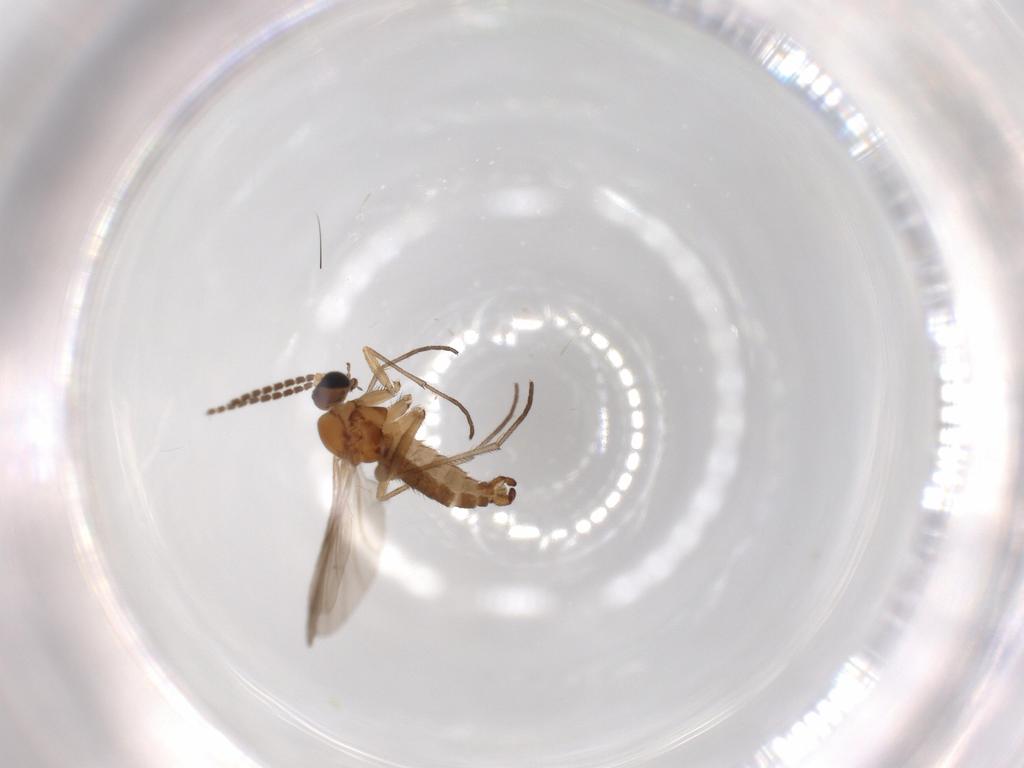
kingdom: Animalia
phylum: Arthropoda
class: Insecta
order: Diptera
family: Sciaridae
